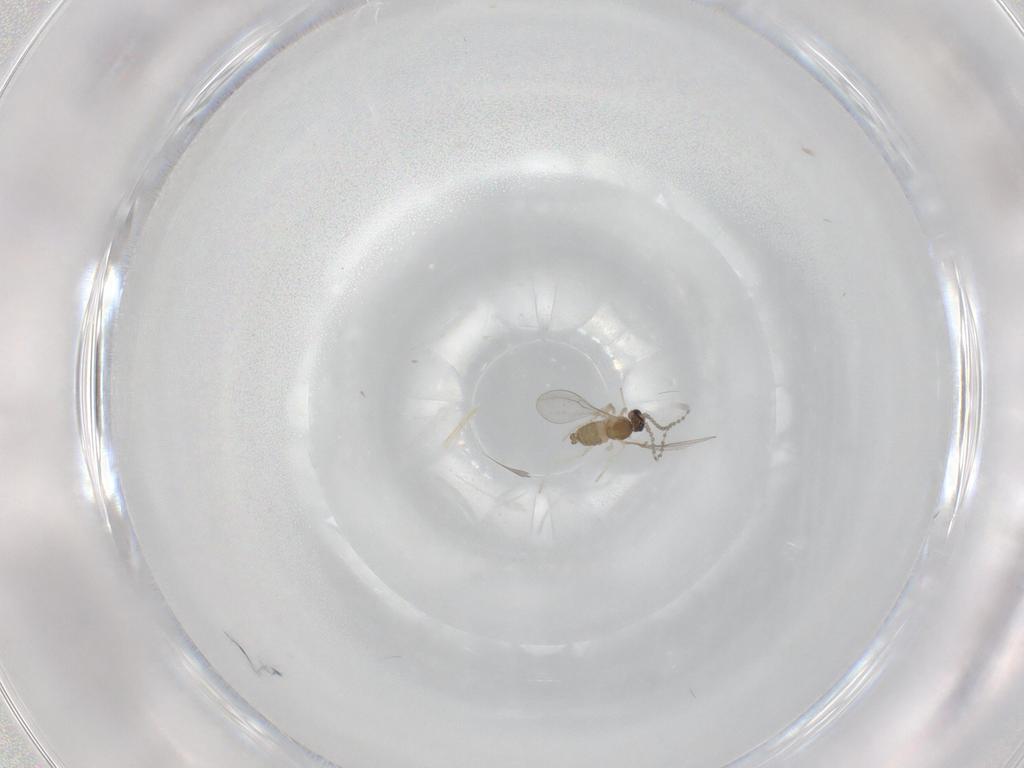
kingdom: Animalia
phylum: Arthropoda
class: Insecta
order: Diptera
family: Cecidomyiidae
